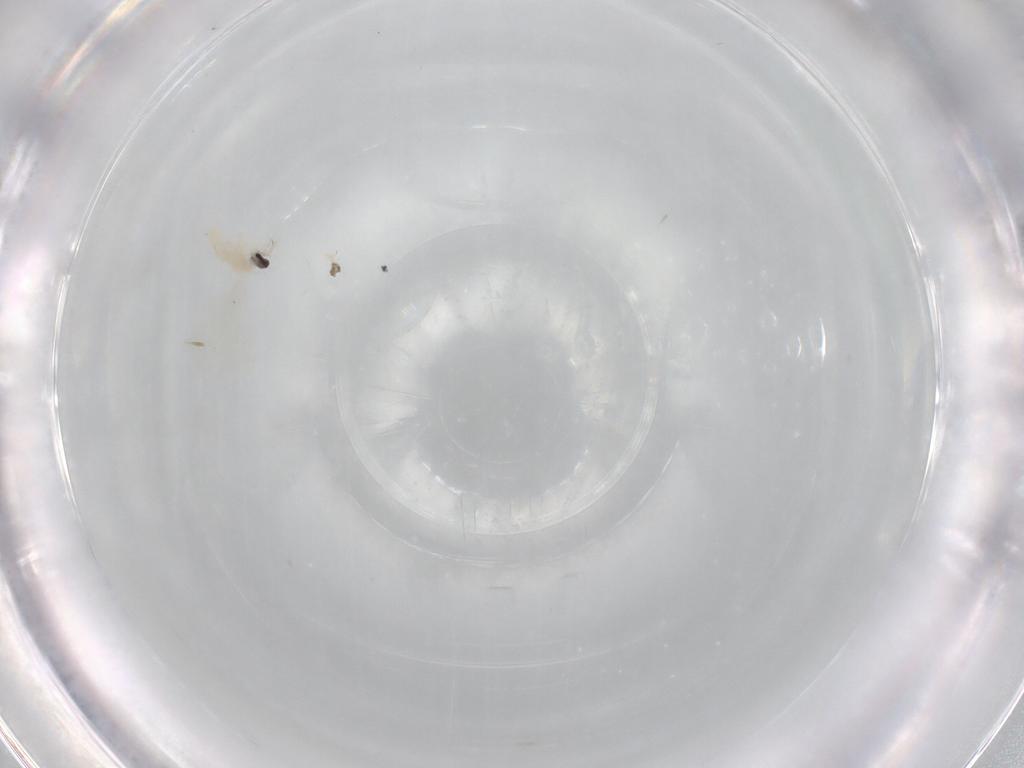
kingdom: Animalia
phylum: Arthropoda
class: Insecta
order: Diptera
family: Cecidomyiidae
